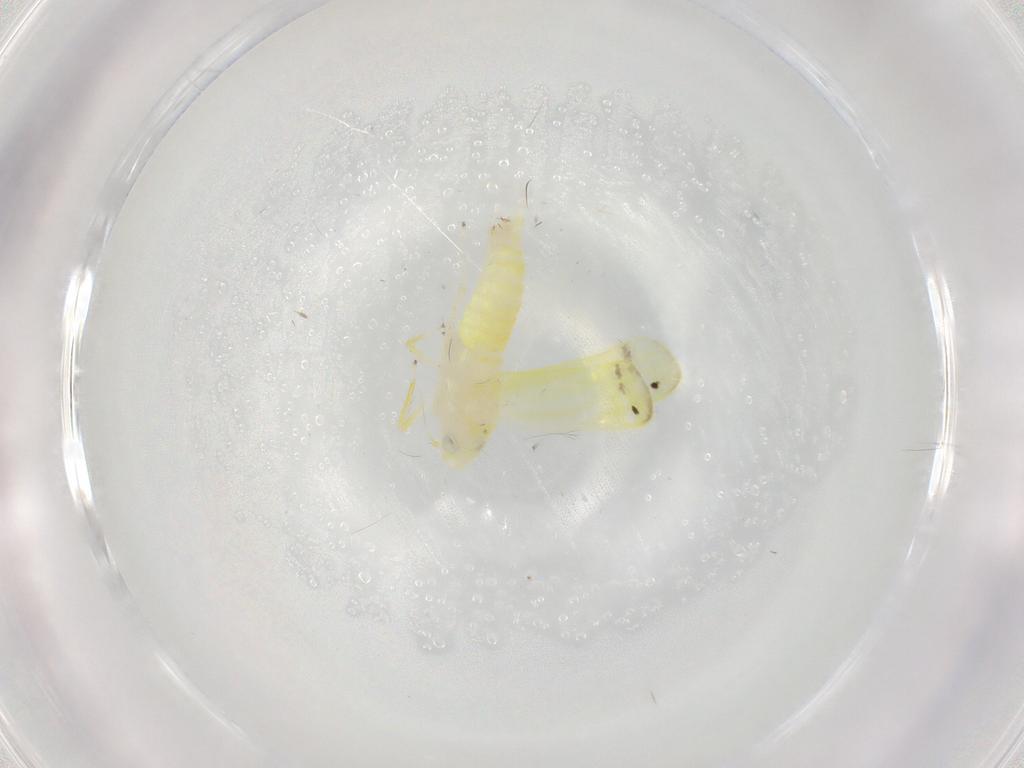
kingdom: Animalia
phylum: Arthropoda
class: Insecta
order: Hemiptera
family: Cicadellidae
